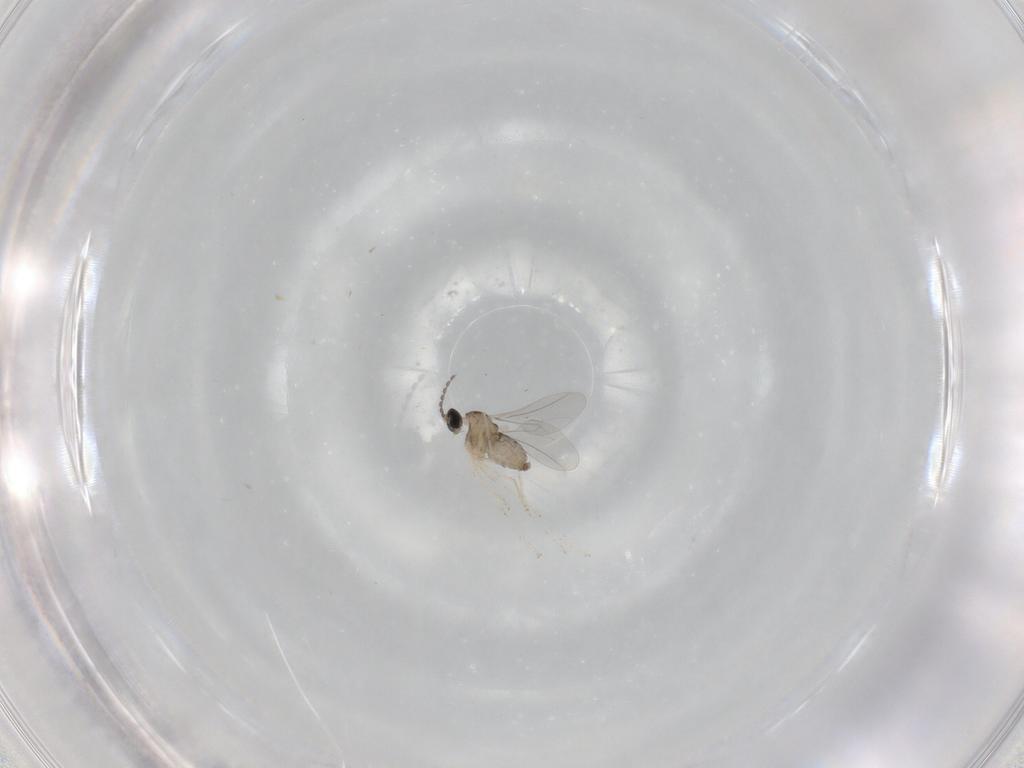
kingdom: Animalia
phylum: Arthropoda
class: Insecta
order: Diptera
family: Cecidomyiidae
